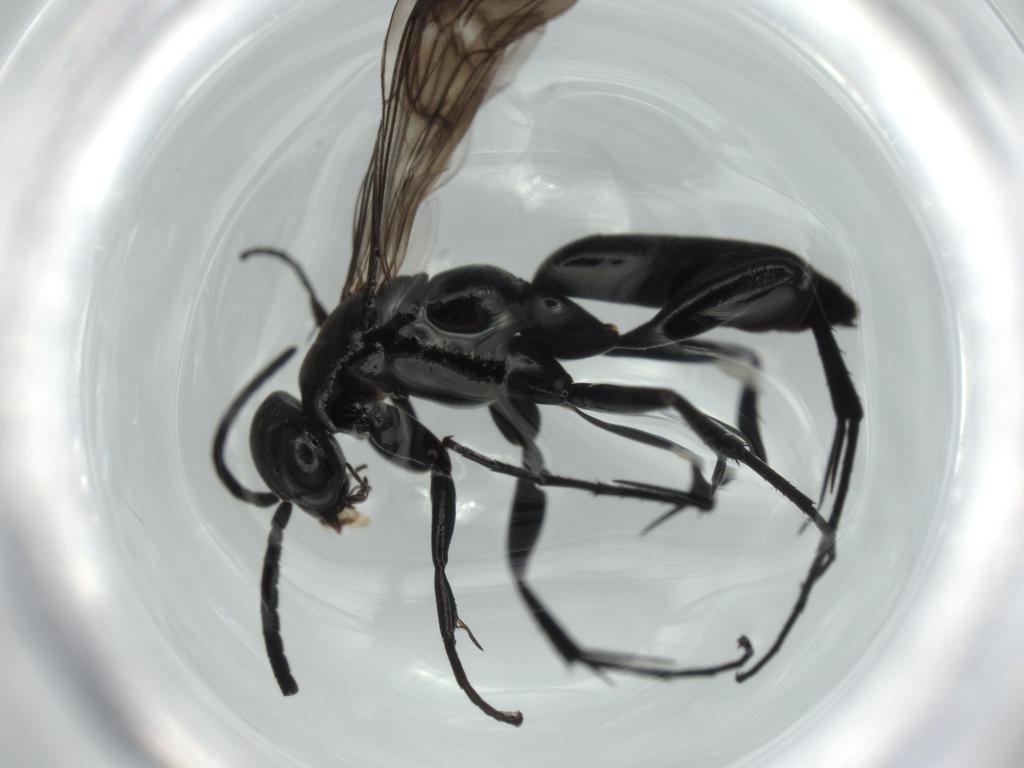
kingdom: Animalia
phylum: Arthropoda
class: Insecta
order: Hymenoptera
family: Pompilidae
